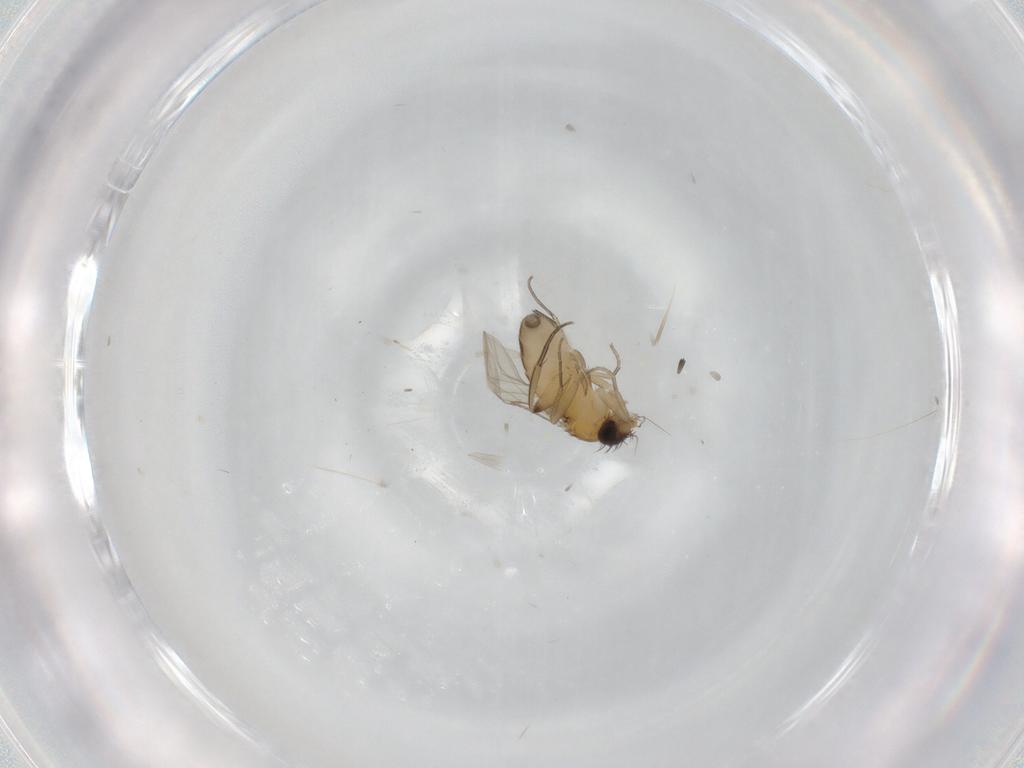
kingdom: Animalia
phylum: Arthropoda
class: Insecta
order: Diptera
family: Phoridae
